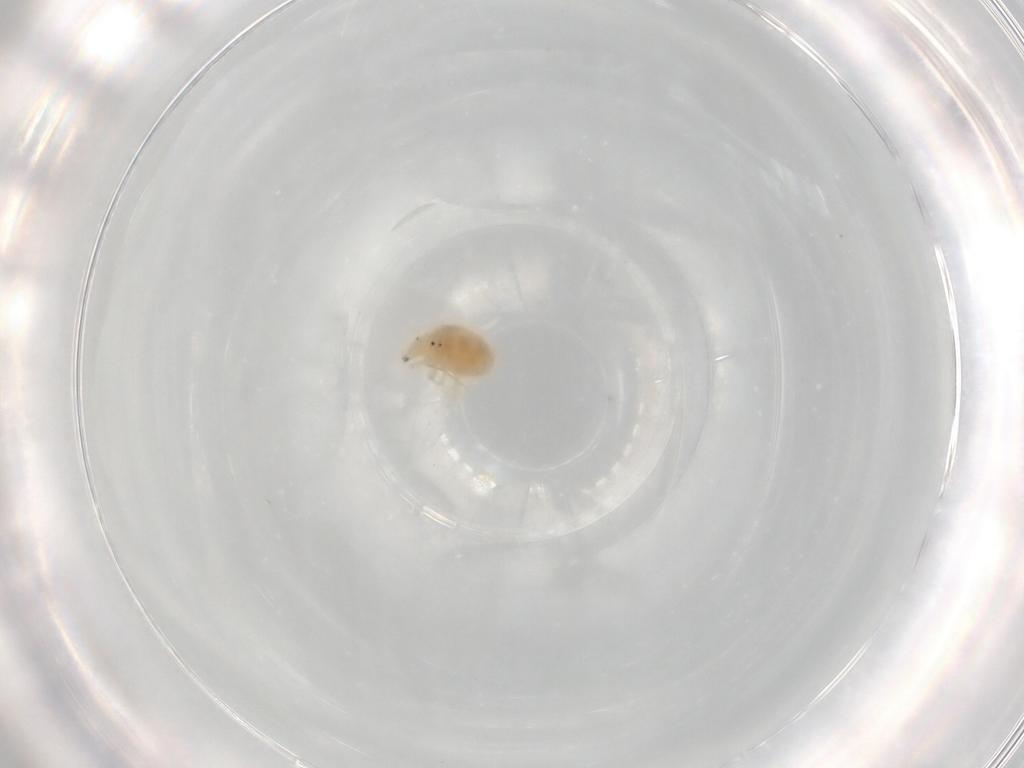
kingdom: Animalia
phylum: Arthropoda
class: Arachnida
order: Trombidiformes
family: Bdellidae
